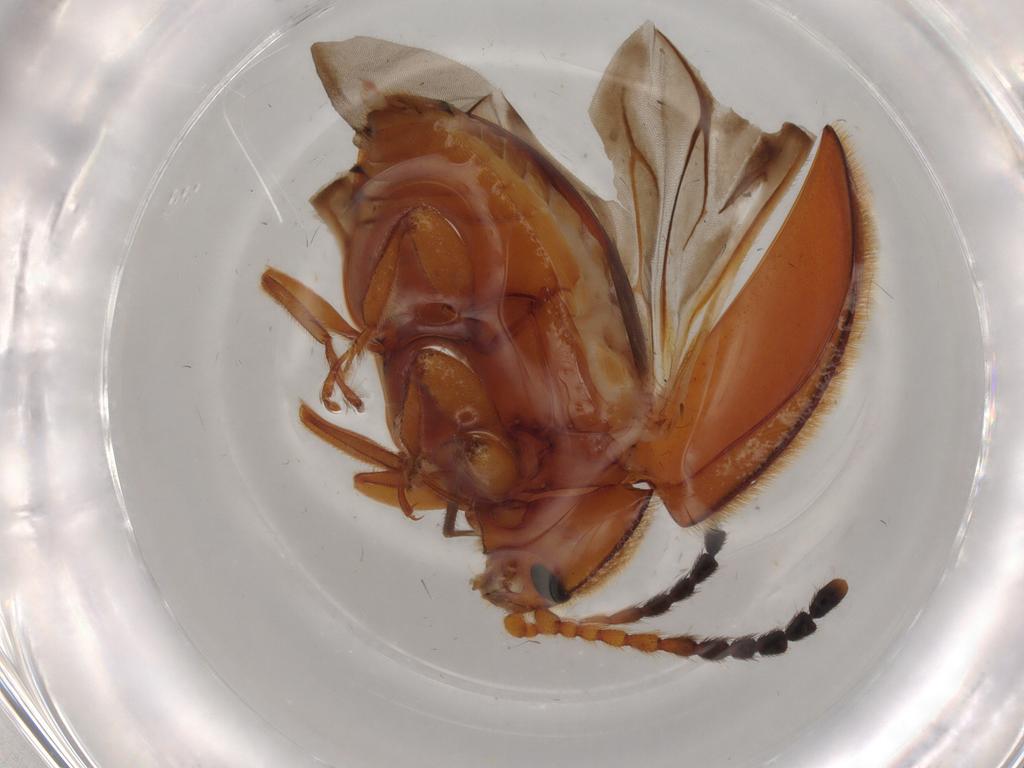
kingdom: Animalia
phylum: Arthropoda
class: Insecta
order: Coleoptera
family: Endomychidae
